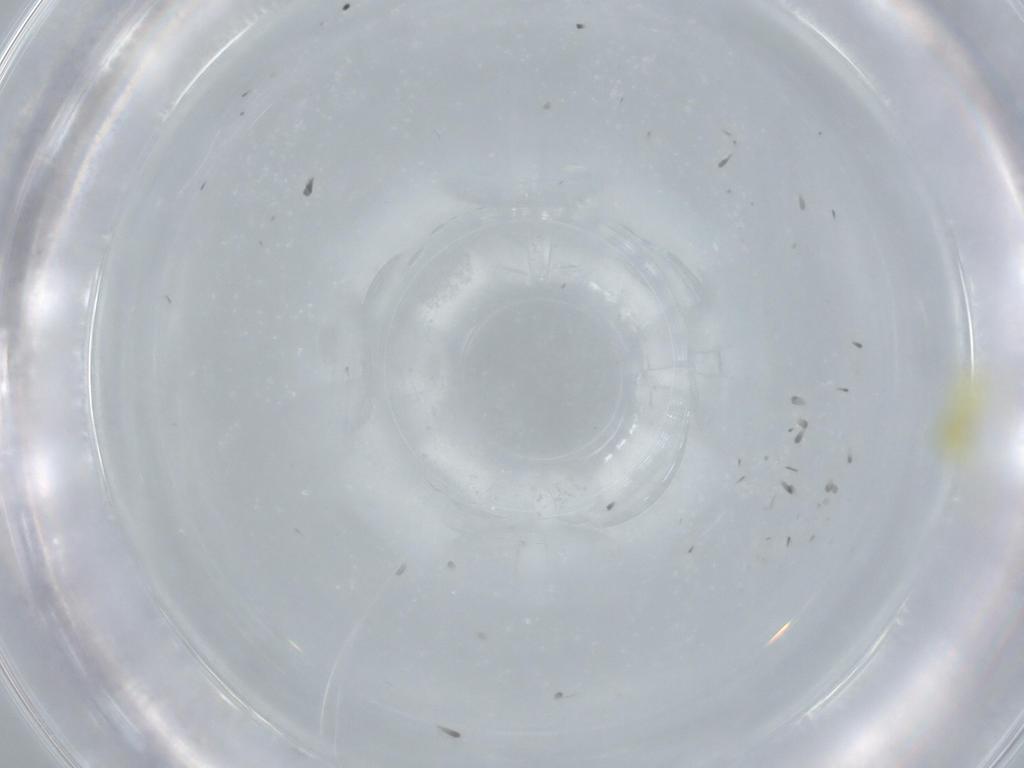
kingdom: Animalia
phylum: Arthropoda
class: Insecta
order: Hemiptera
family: Aleyrodidae
